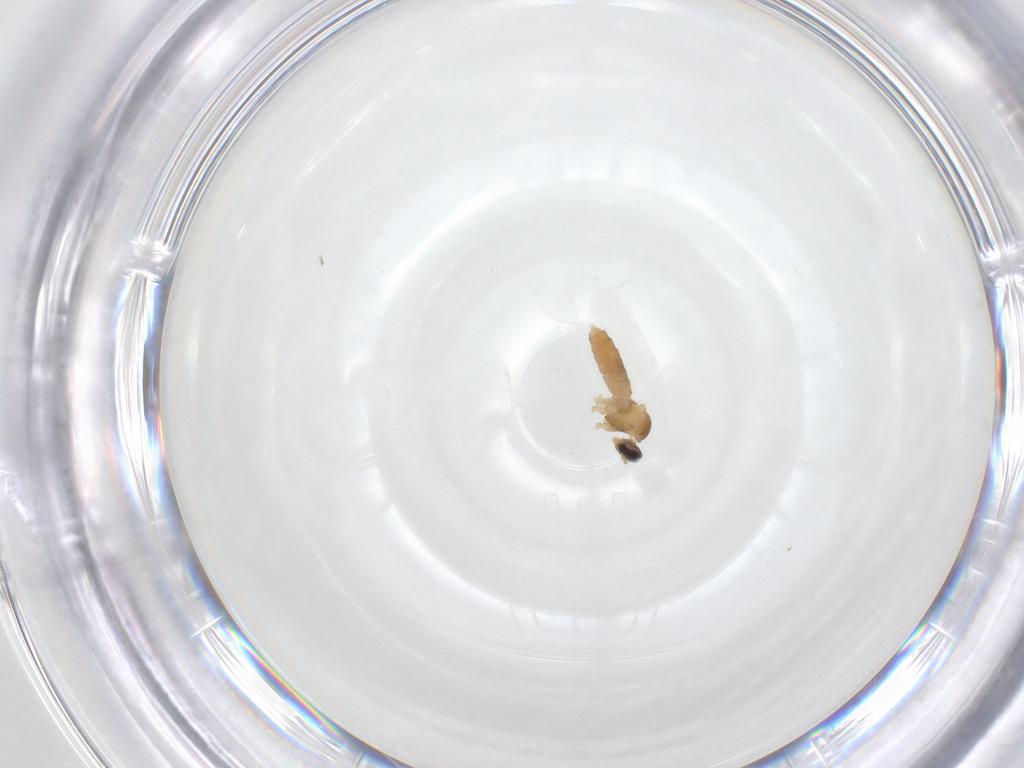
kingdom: Animalia
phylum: Arthropoda
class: Insecta
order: Diptera
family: Cecidomyiidae
